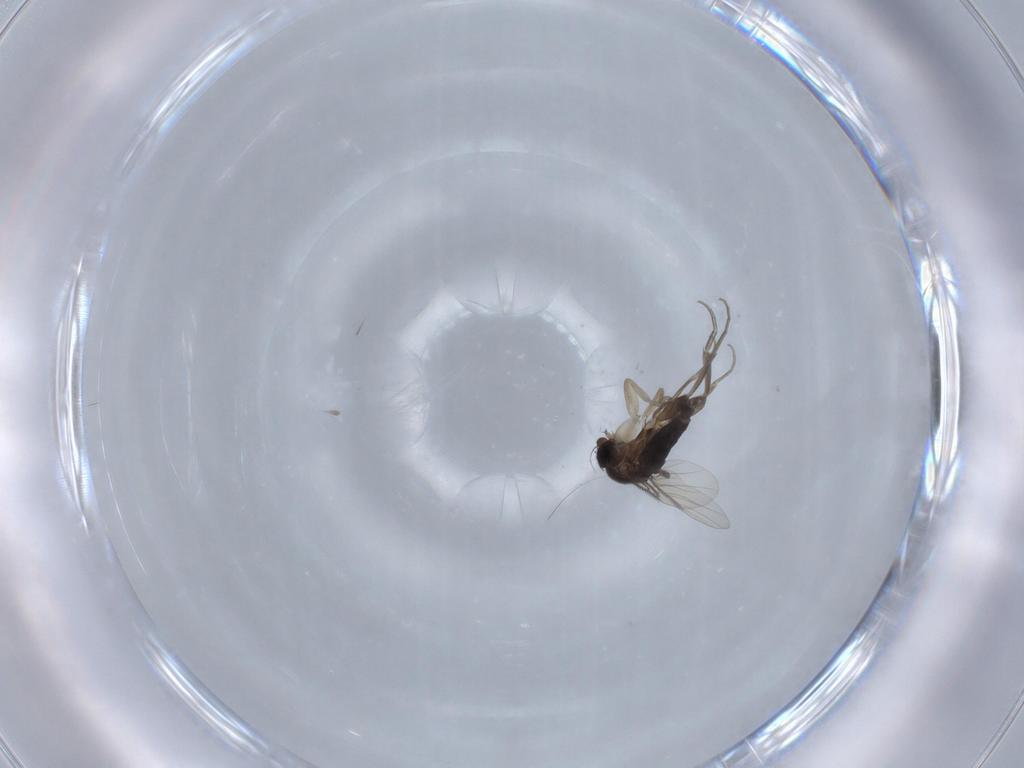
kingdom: Animalia
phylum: Arthropoda
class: Insecta
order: Diptera
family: Phoridae
